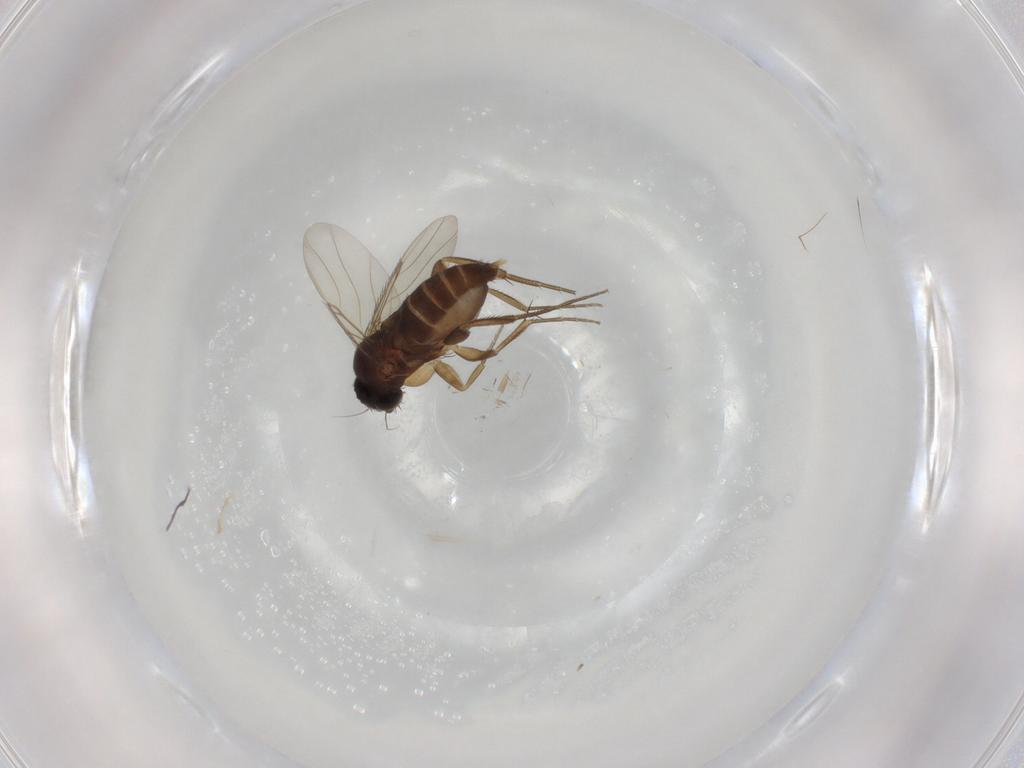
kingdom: Animalia
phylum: Arthropoda
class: Insecta
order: Diptera
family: Phoridae
